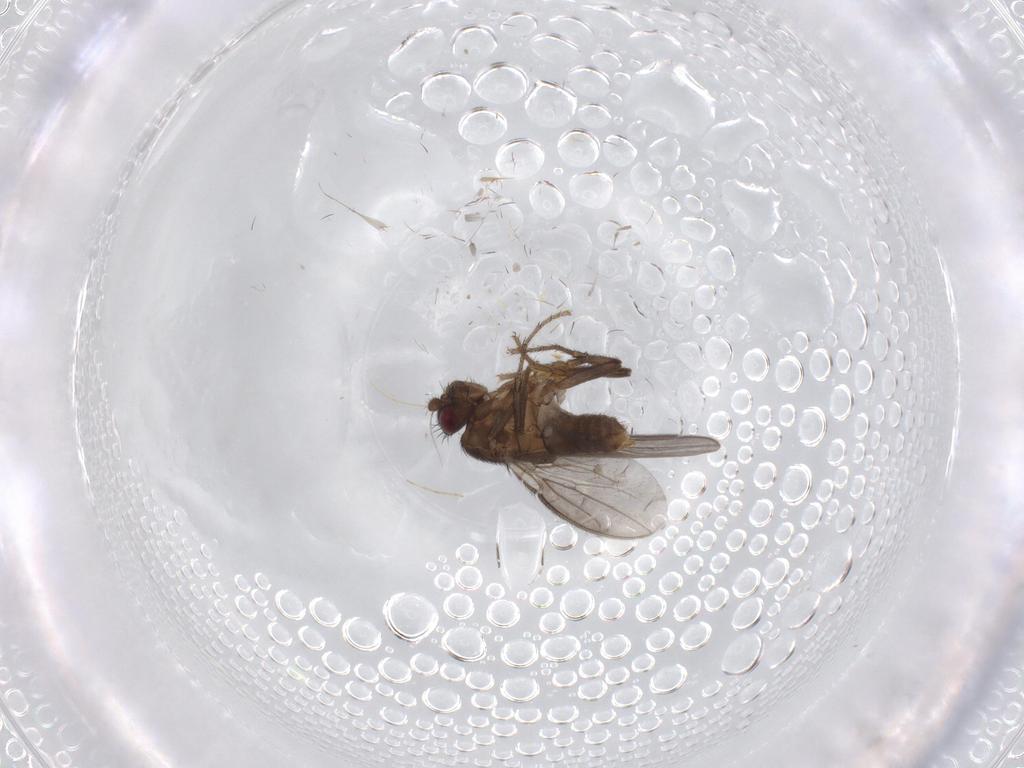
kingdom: Animalia
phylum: Arthropoda
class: Insecta
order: Diptera
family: Sphaeroceridae
